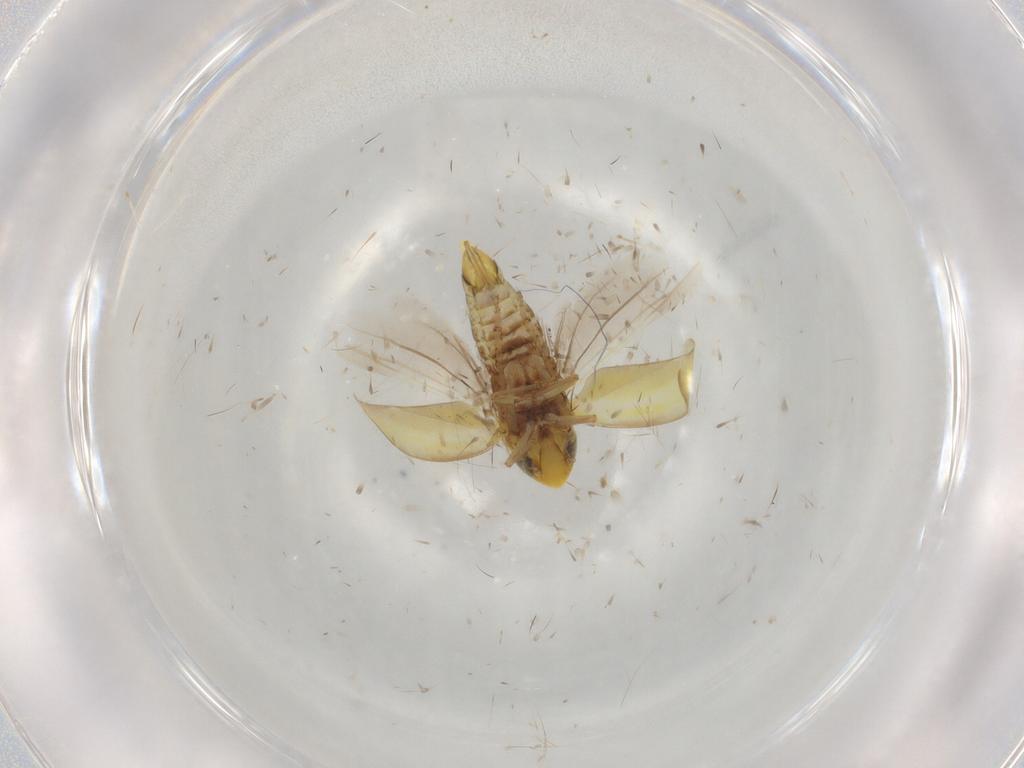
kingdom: Animalia
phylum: Arthropoda
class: Insecta
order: Hemiptera
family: Cicadellidae
